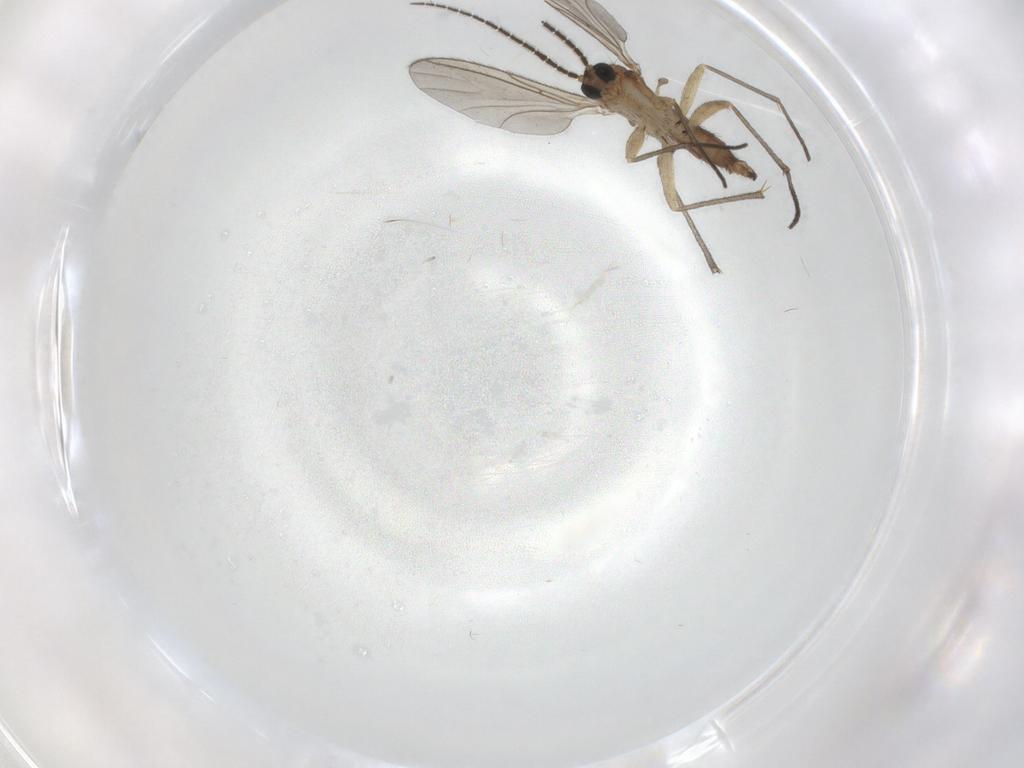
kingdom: Animalia
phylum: Arthropoda
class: Insecta
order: Diptera
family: Sciaridae
